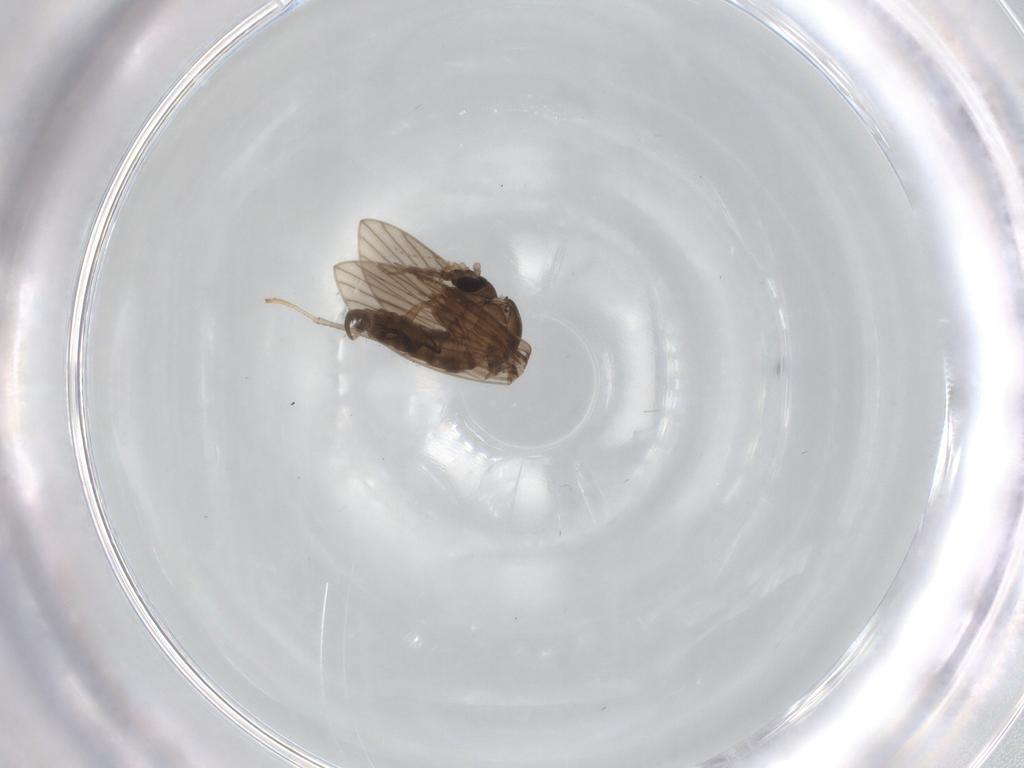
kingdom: Animalia
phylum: Arthropoda
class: Insecta
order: Diptera
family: Psychodidae
